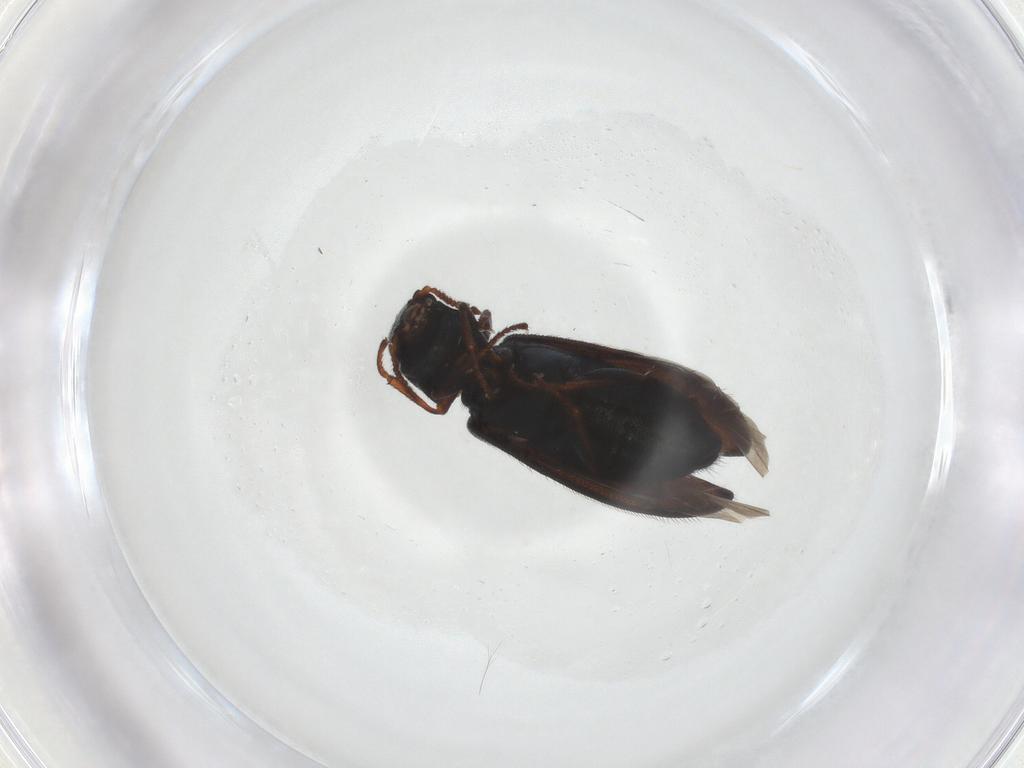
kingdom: Animalia
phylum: Arthropoda
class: Insecta
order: Coleoptera
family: Melyridae
